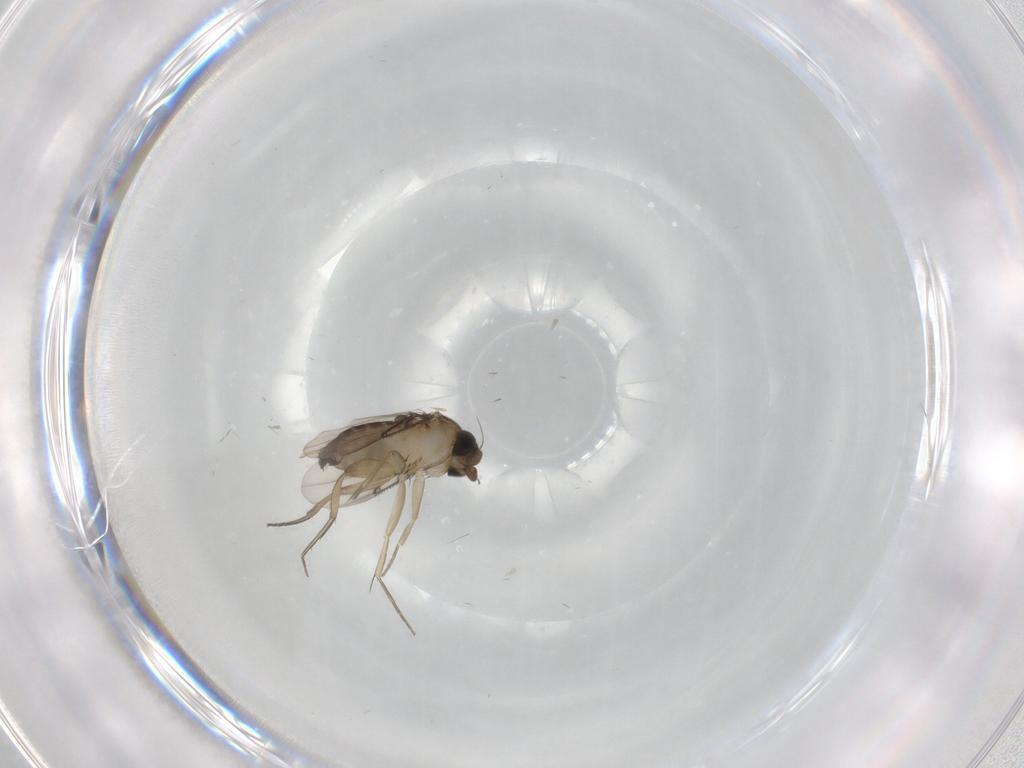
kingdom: Animalia
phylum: Arthropoda
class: Insecta
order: Diptera
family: Phoridae
